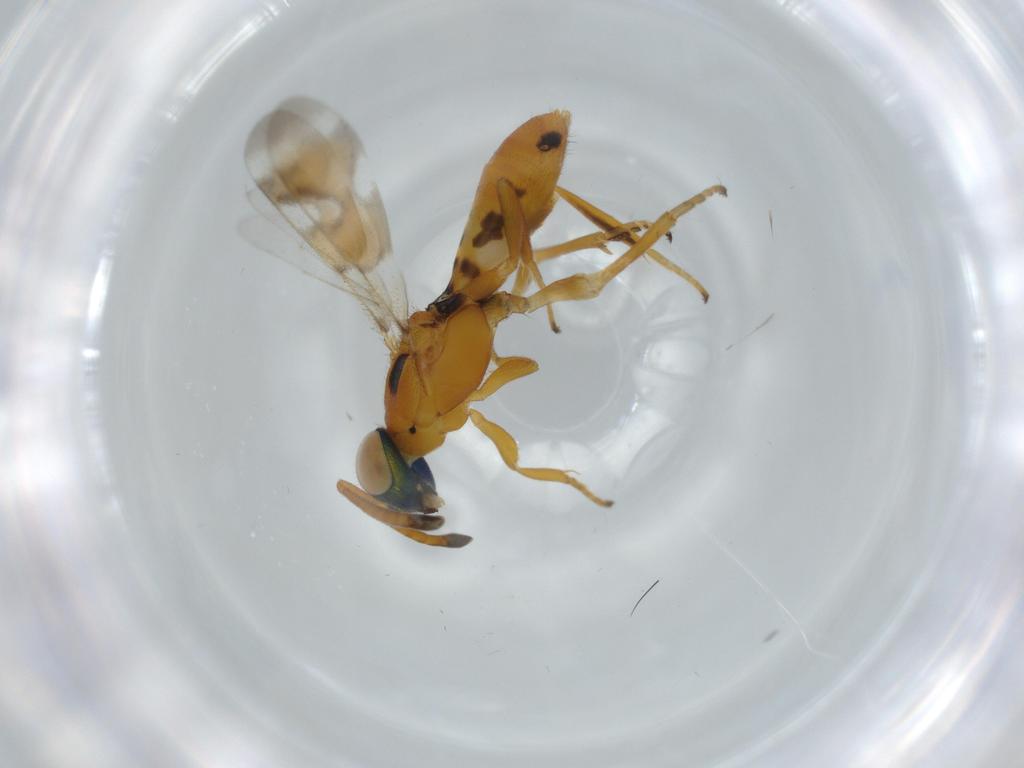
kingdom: Animalia
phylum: Arthropoda
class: Insecta
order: Hymenoptera
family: Eupelmidae
